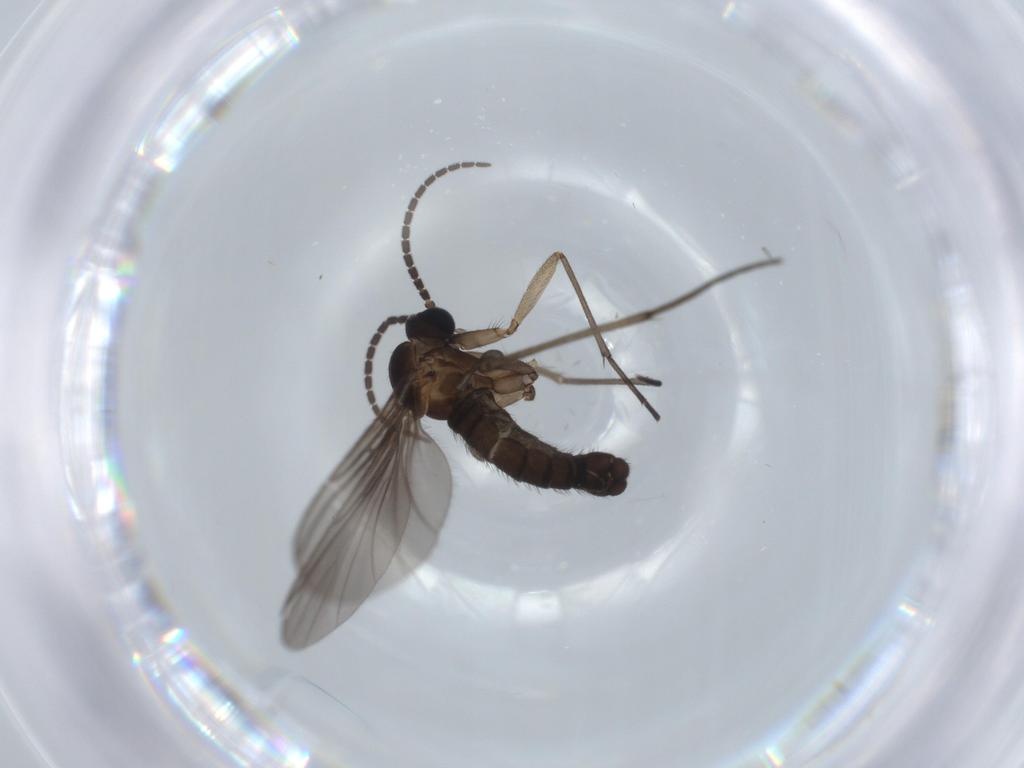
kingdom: Animalia
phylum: Arthropoda
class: Insecta
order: Diptera
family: Sciaridae
